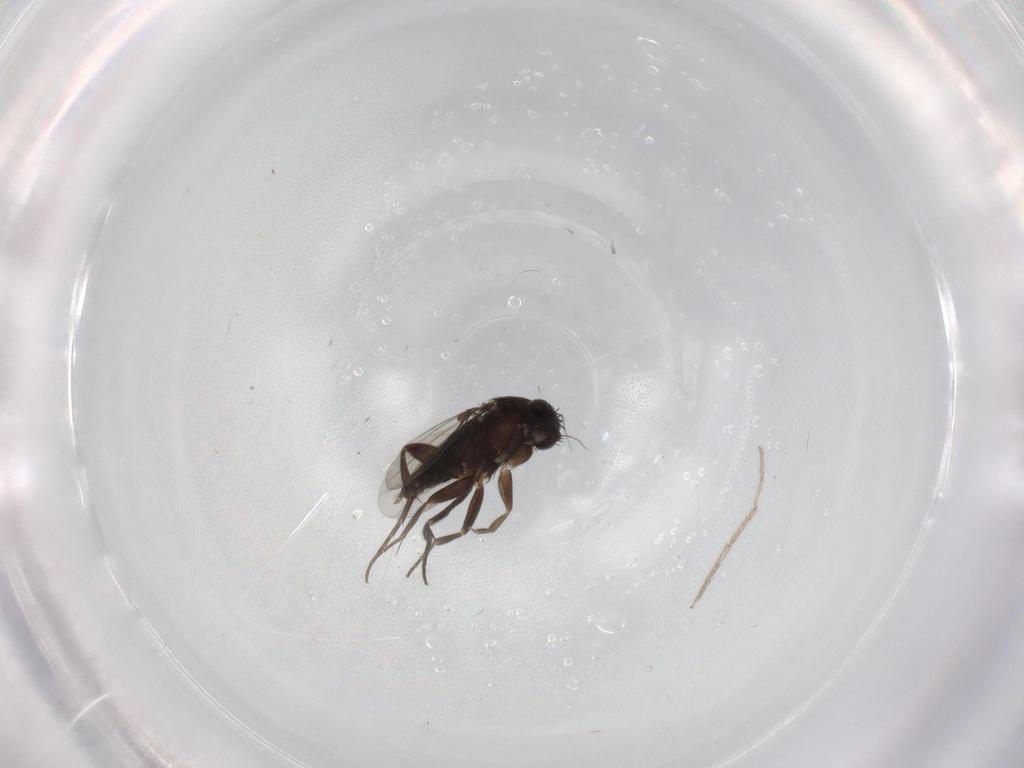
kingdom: Animalia
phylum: Arthropoda
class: Insecta
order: Diptera
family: Chironomidae
